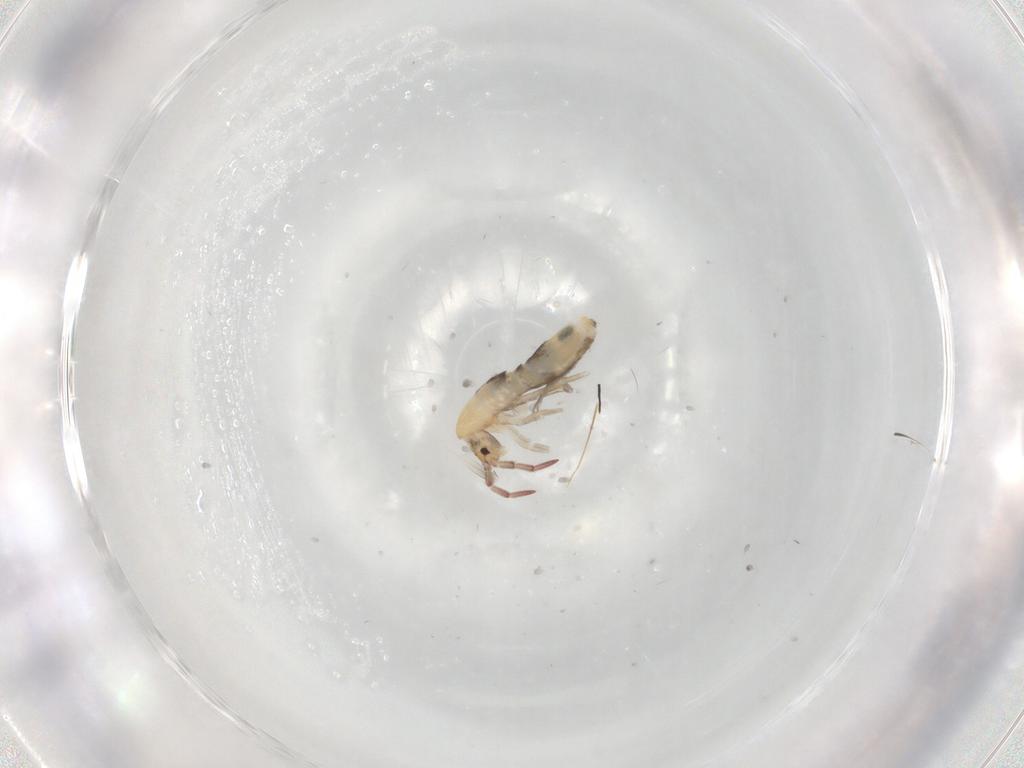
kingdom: Animalia
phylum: Arthropoda
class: Collembola
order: Entomobryomorpha
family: Entomobryidae
